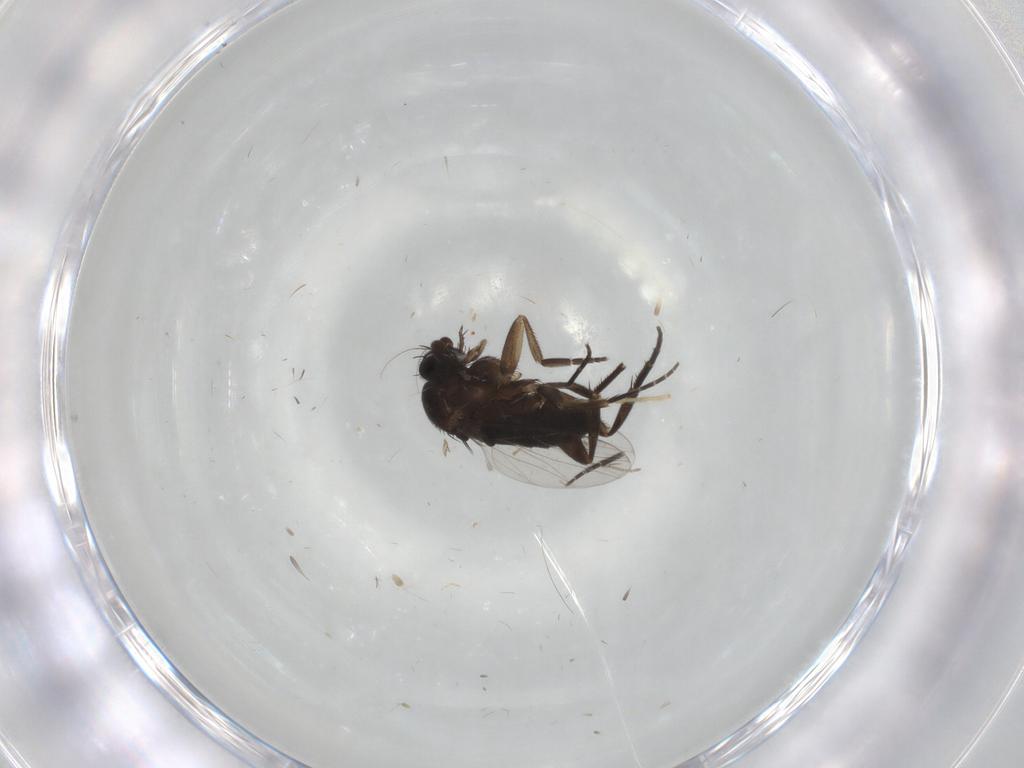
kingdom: Animalia
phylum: Arthropoda
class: Insecta
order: Diptera
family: Phoridae
